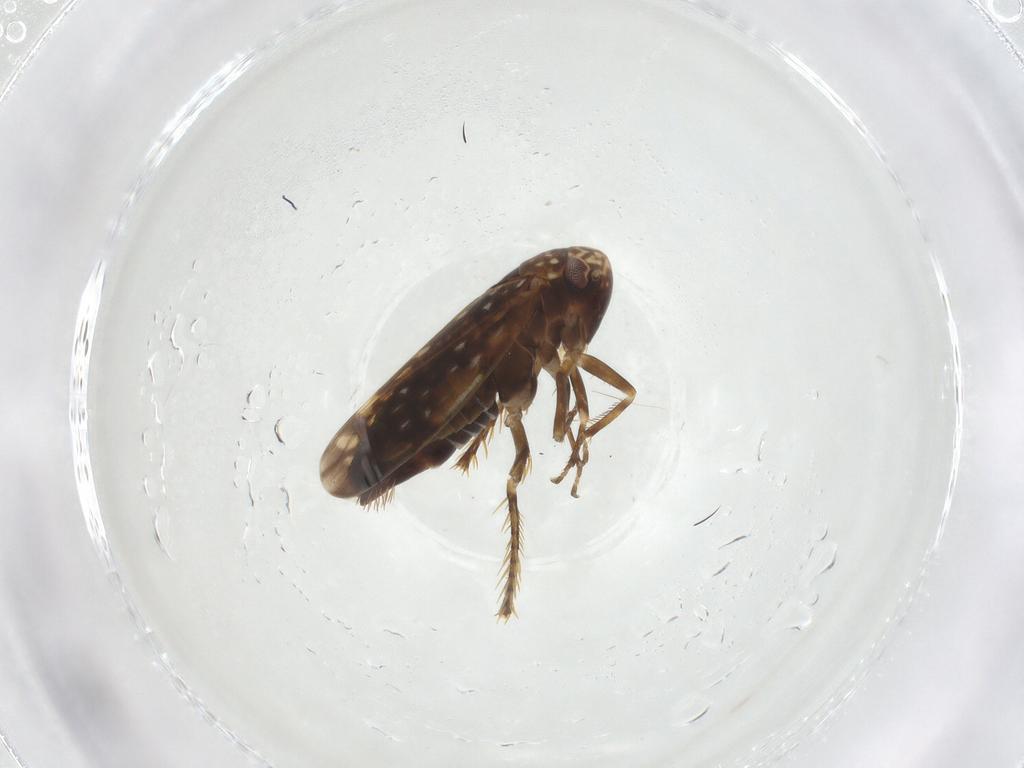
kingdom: Animalia
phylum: Arthropoda
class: Insecta
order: Hemiptera
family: Cicadellidae
